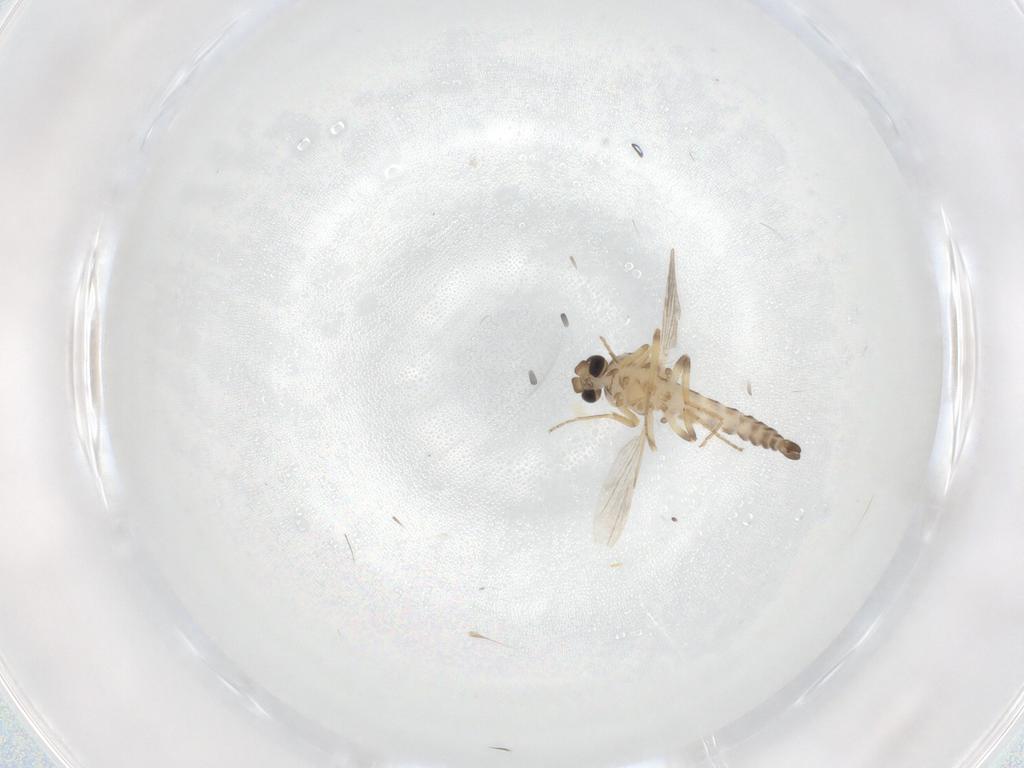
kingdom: Animalia
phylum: Arthropoda
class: Insecta
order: Diptera
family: Ceratopogonidae
